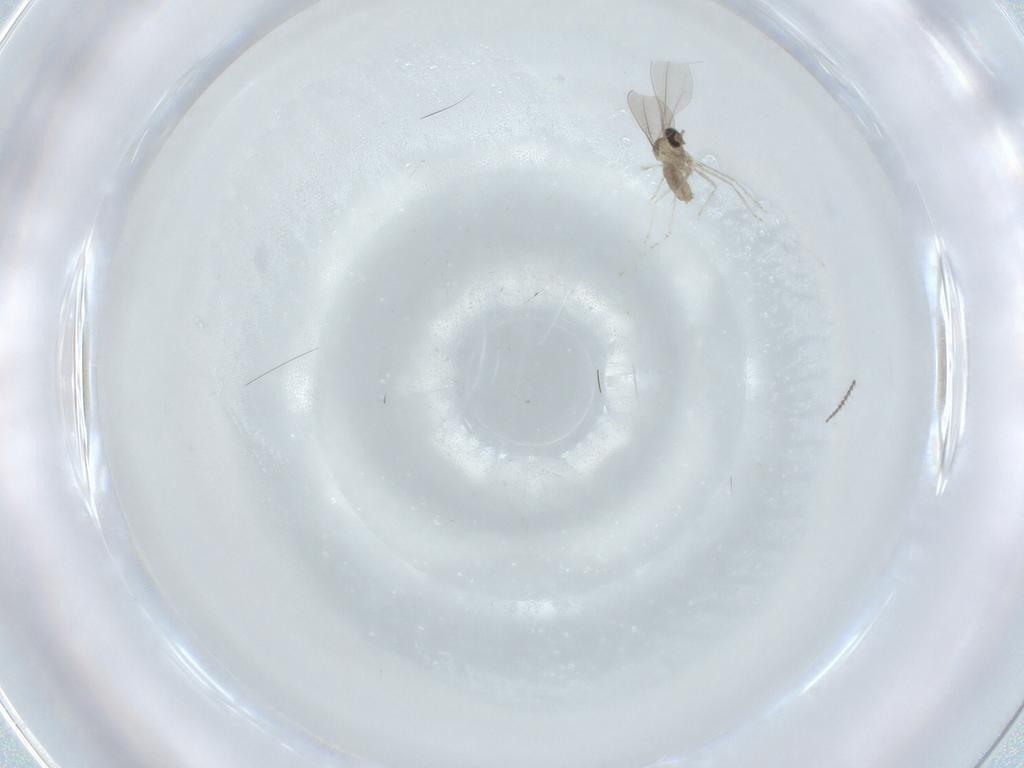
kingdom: Animalia
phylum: Arthropoda
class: Insecta
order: Diptera
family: Cecidomyiidae
